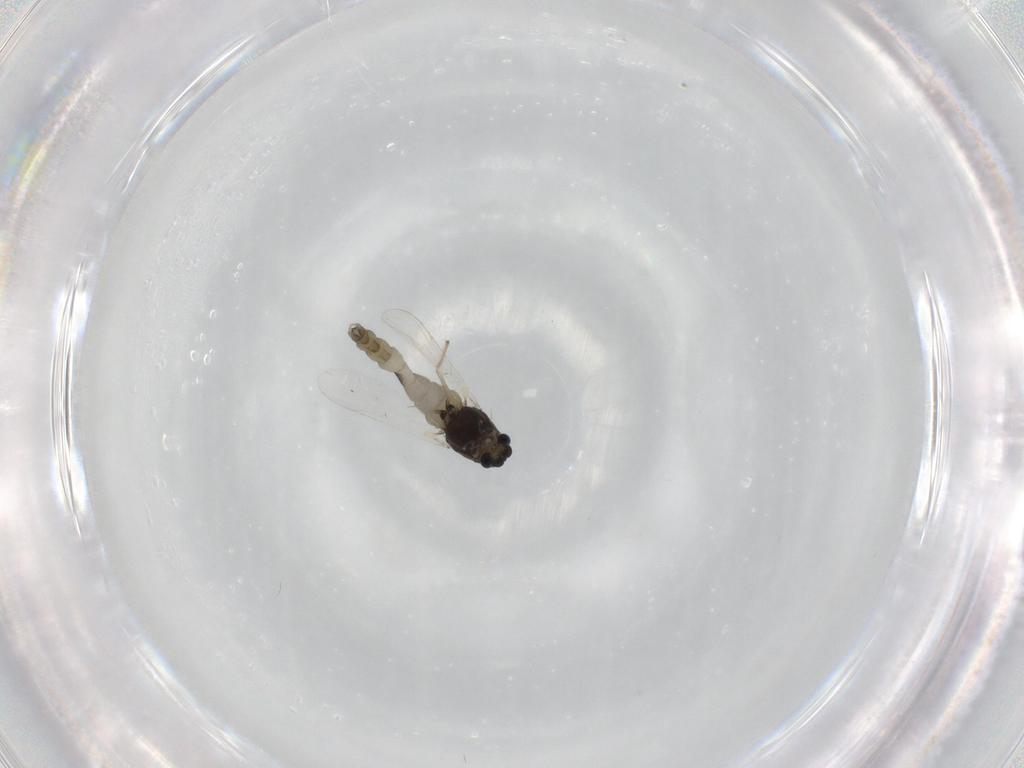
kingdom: Animalia
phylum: Arthropoda
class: Insecta
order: Diptera
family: Chironomidae
